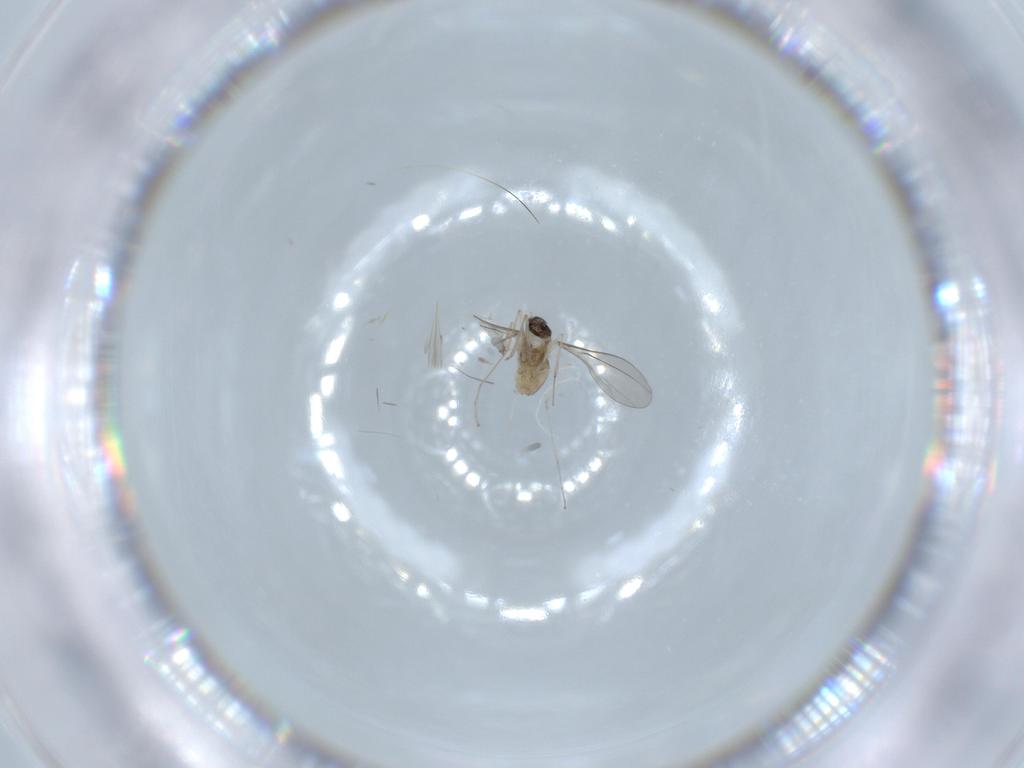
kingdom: Animalia
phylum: Arthropoda
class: Insecta
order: Diptera
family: Cecidomyiidae
